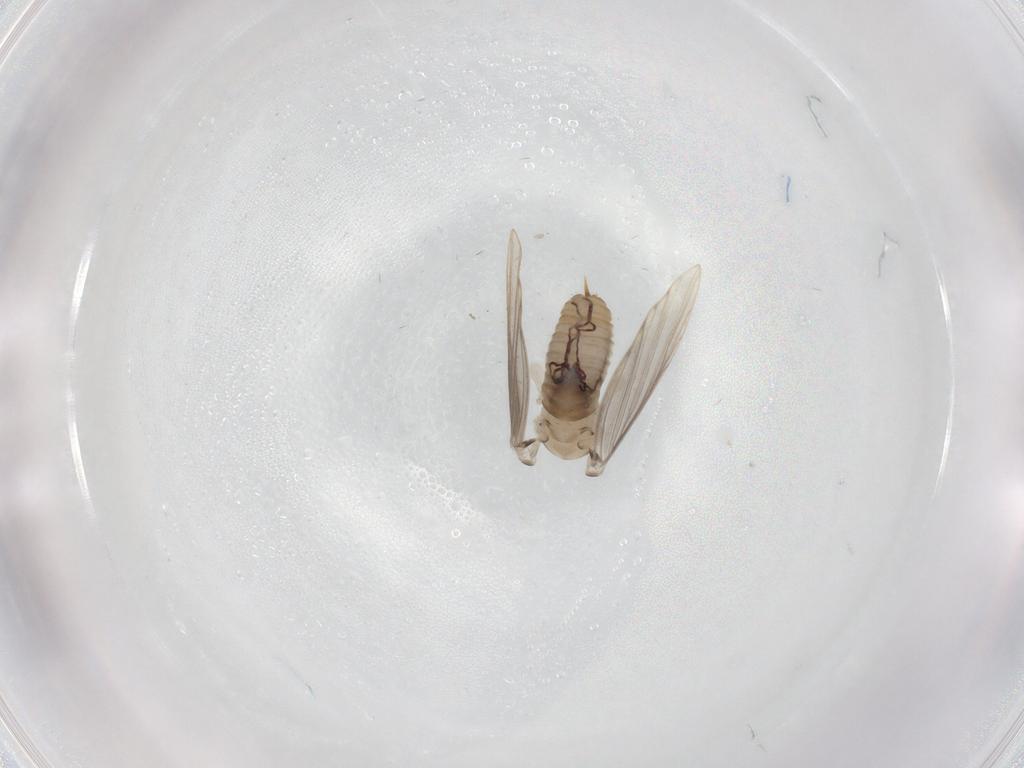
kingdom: Animalia
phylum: Arthropoda
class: Insecta
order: Diptera
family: Psychodidae
